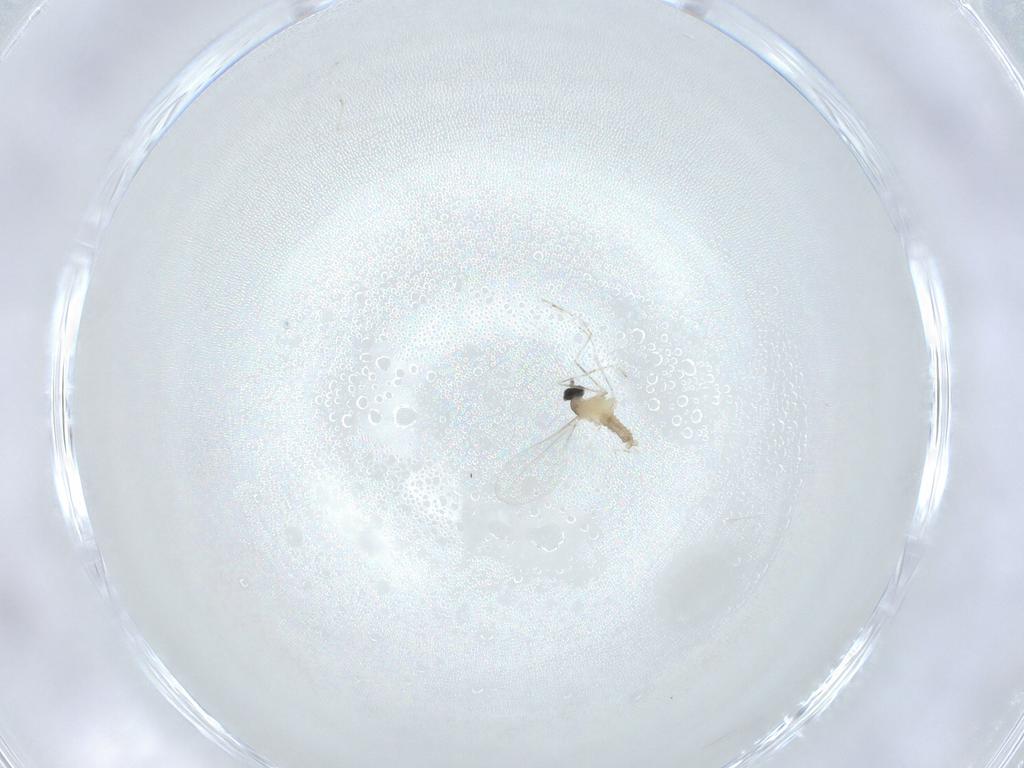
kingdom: Animalia
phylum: Arthropoda
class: Insecta
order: Diptera
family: Cecidomyiidae
